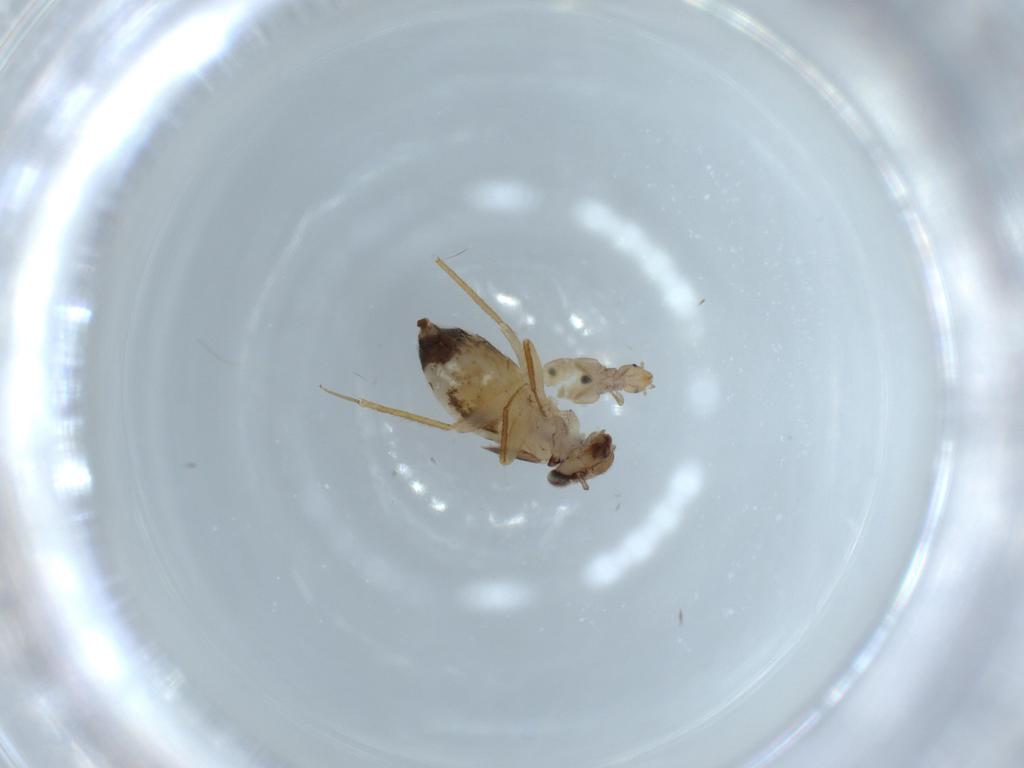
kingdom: Animalia
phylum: Arthropoda
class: Insecta
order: Psocodea
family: Liposcelididae
